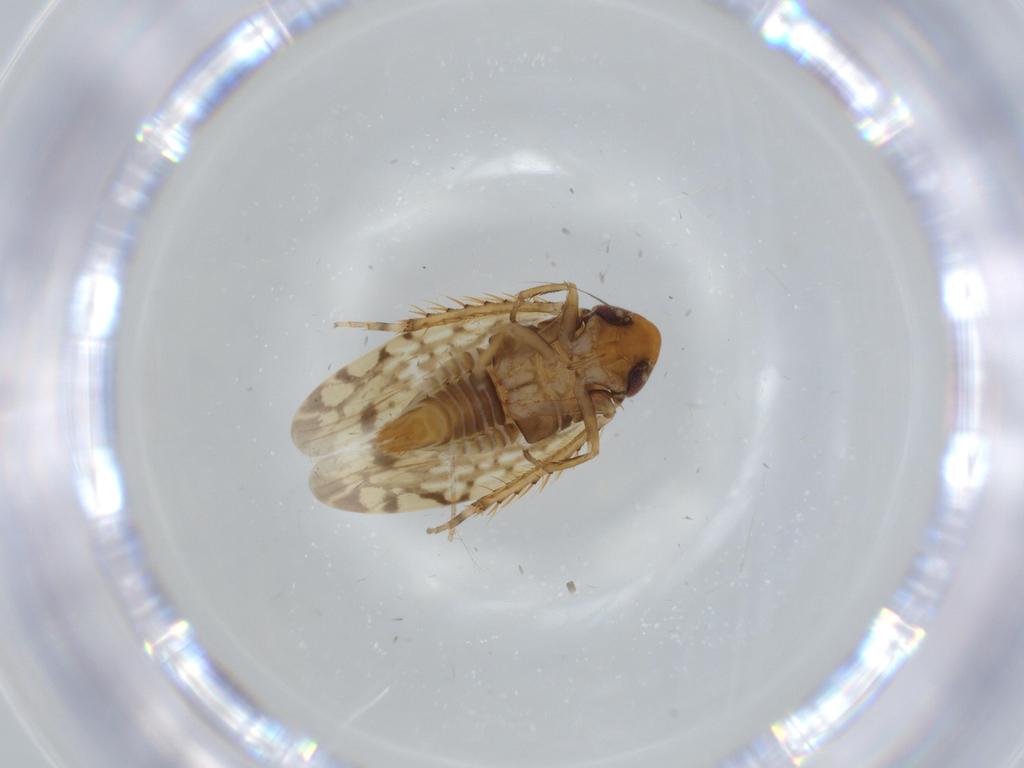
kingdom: Animalia
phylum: Arthropoda
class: Insecta
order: Hemiptera
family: Cicadellidae
